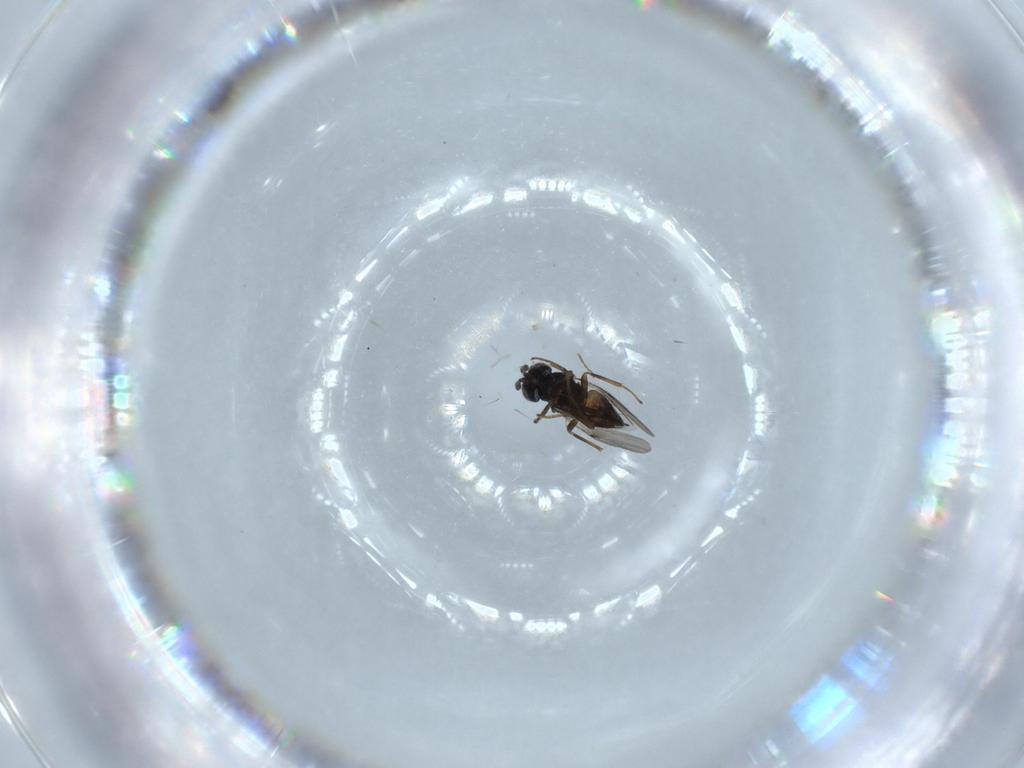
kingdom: Animalia
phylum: Arthropoda
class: Insecta
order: Hymenoptera
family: Encyrtidae
